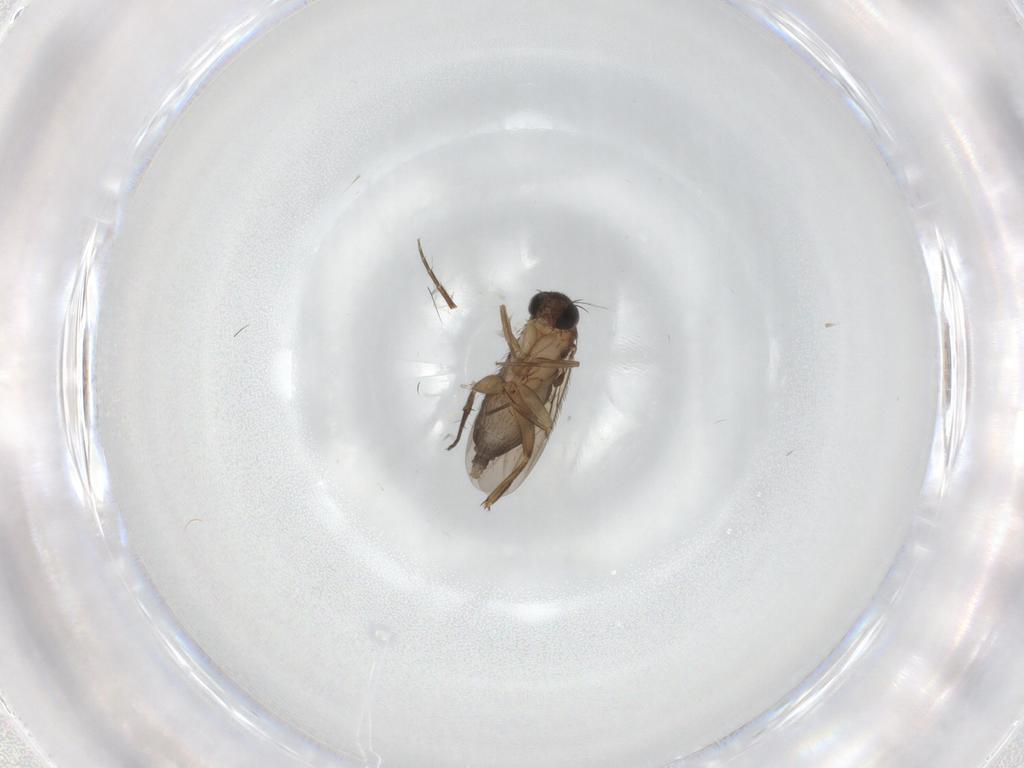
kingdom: Animalia
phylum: Arthropoda
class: Insecta
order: Diptera
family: Phoridae
